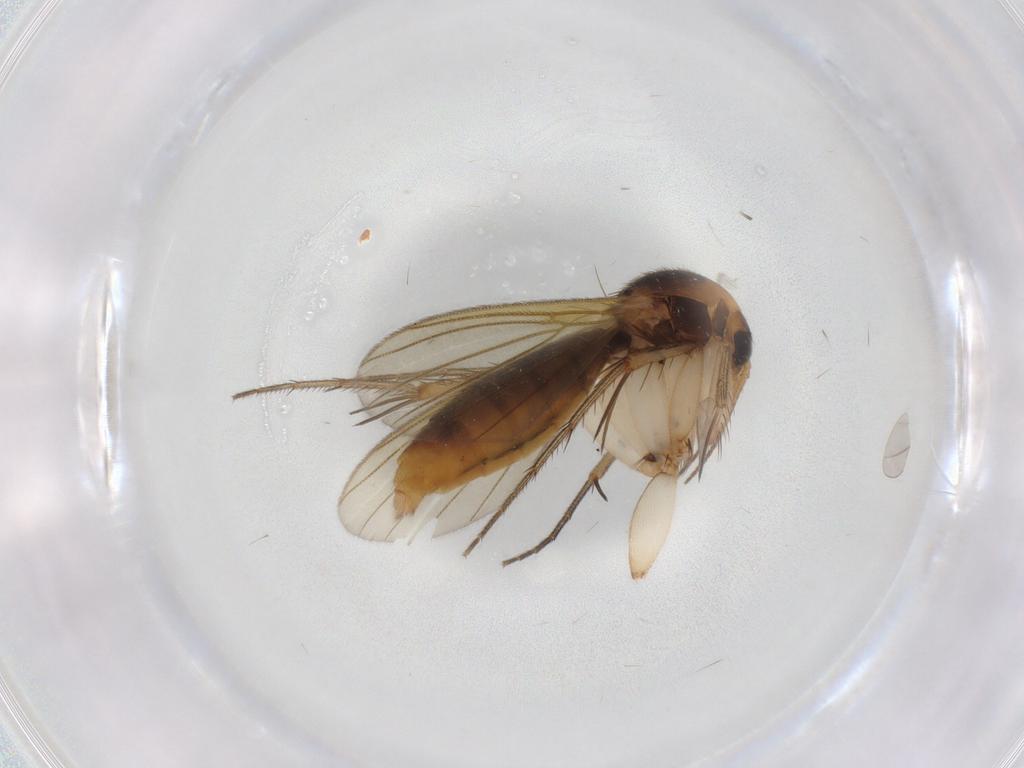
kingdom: Animalia
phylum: Arthropoda
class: Insecta
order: Diptera
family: Mycetophilidae
